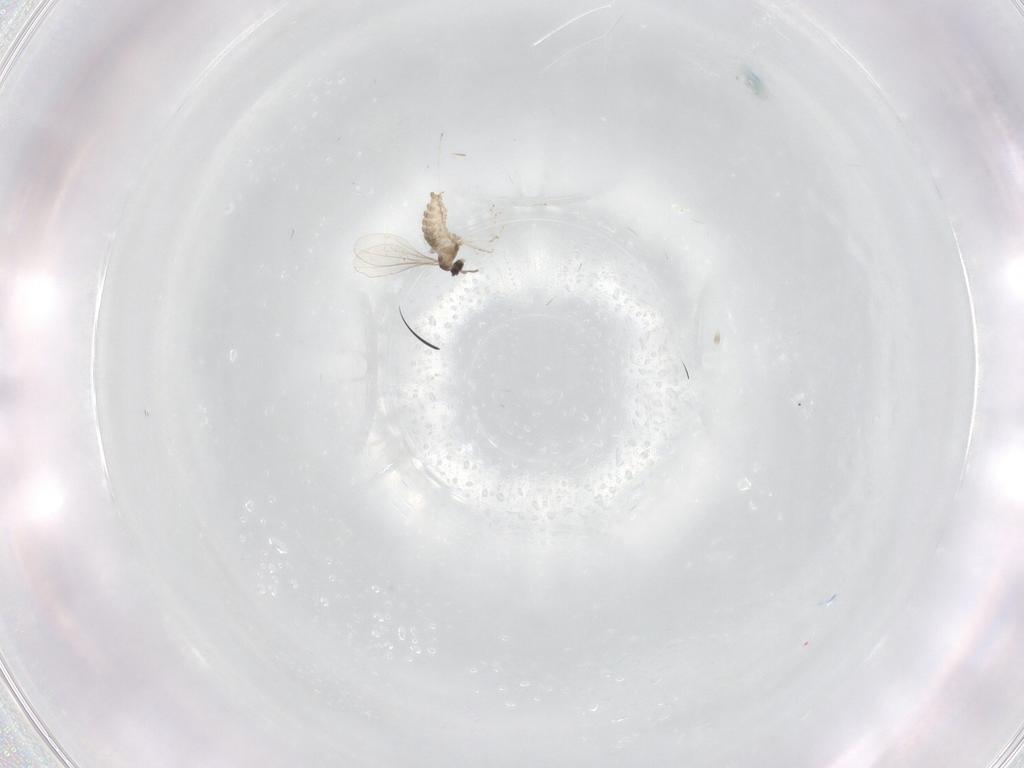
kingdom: Animalia
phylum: Arthropoda
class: Insecta
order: Diptera
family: Cecidomyiidae
